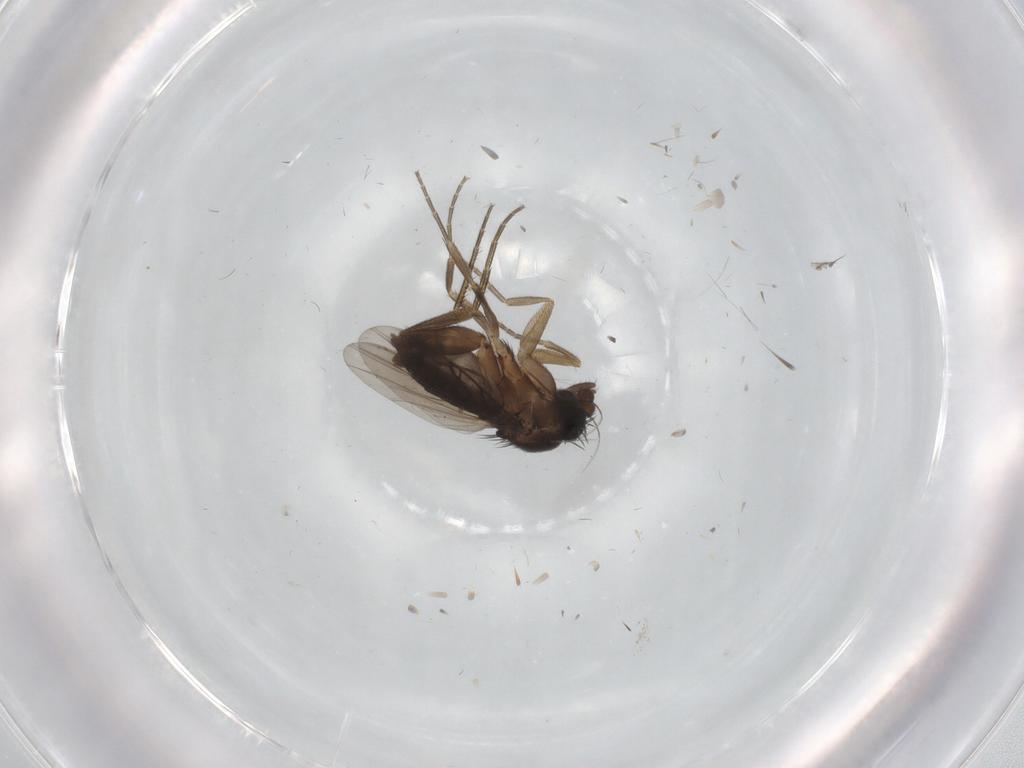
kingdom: Animalia
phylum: Arthropoda
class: Insecta
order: Diptera
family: Phoridae
